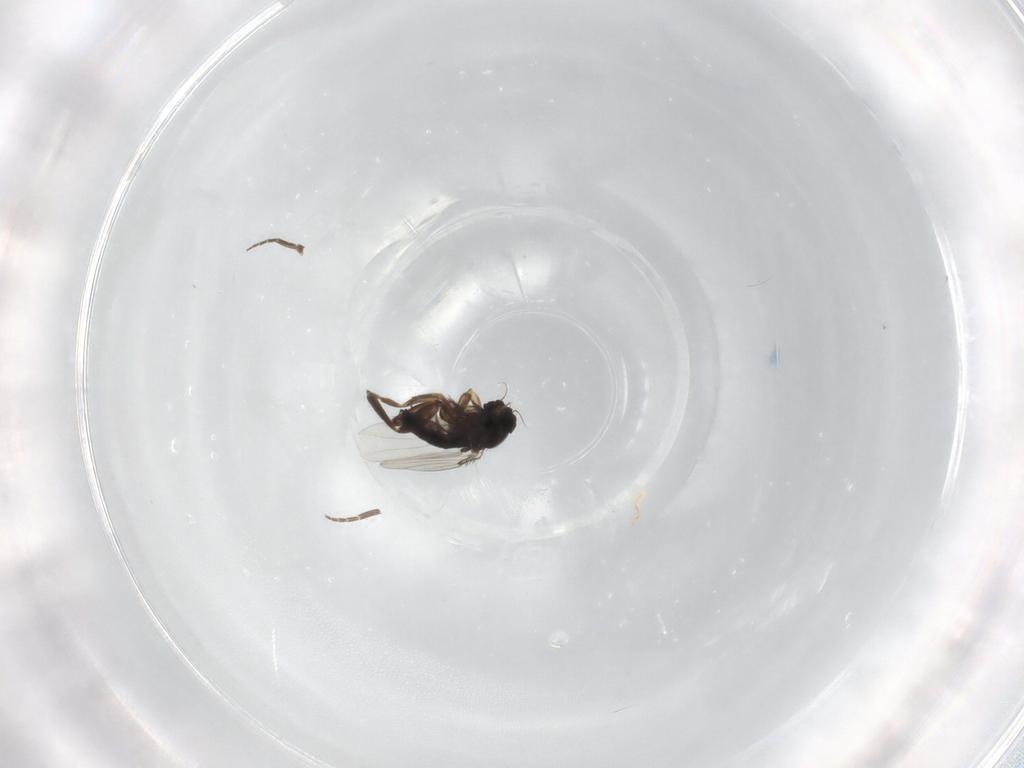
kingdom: Animalia
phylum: Arthropoda
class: Insecta
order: Diptera
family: Phoridae
